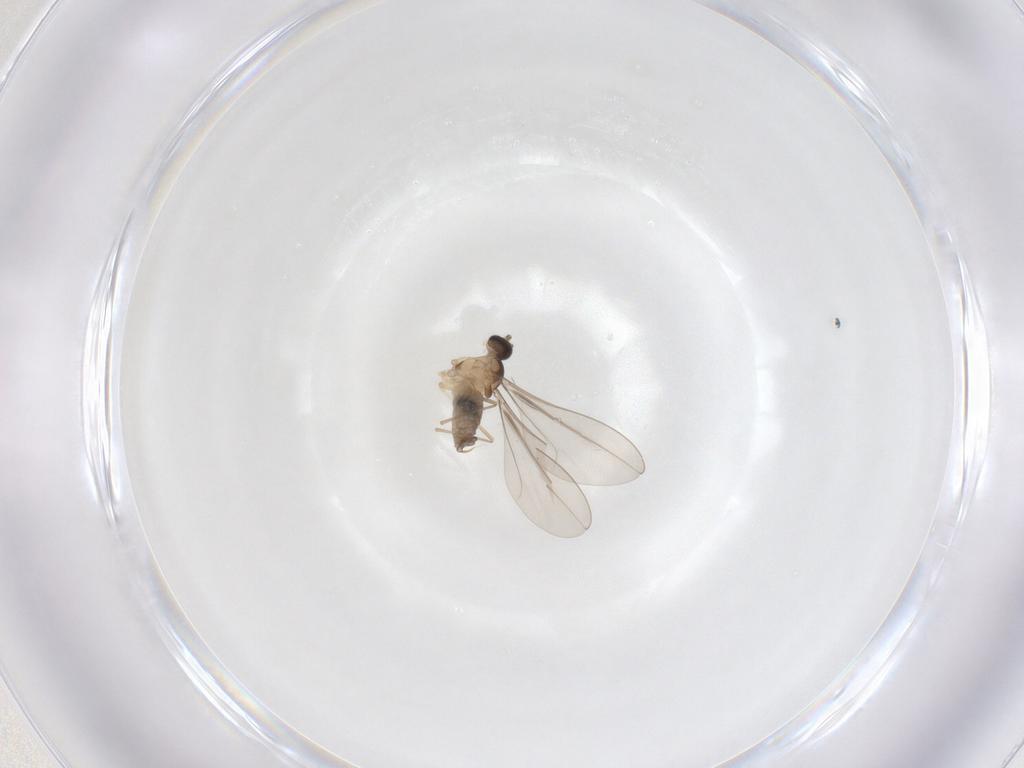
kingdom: Animalia
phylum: Arthropoda
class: Insecta
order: Diptera
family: Cecidomyiidae
